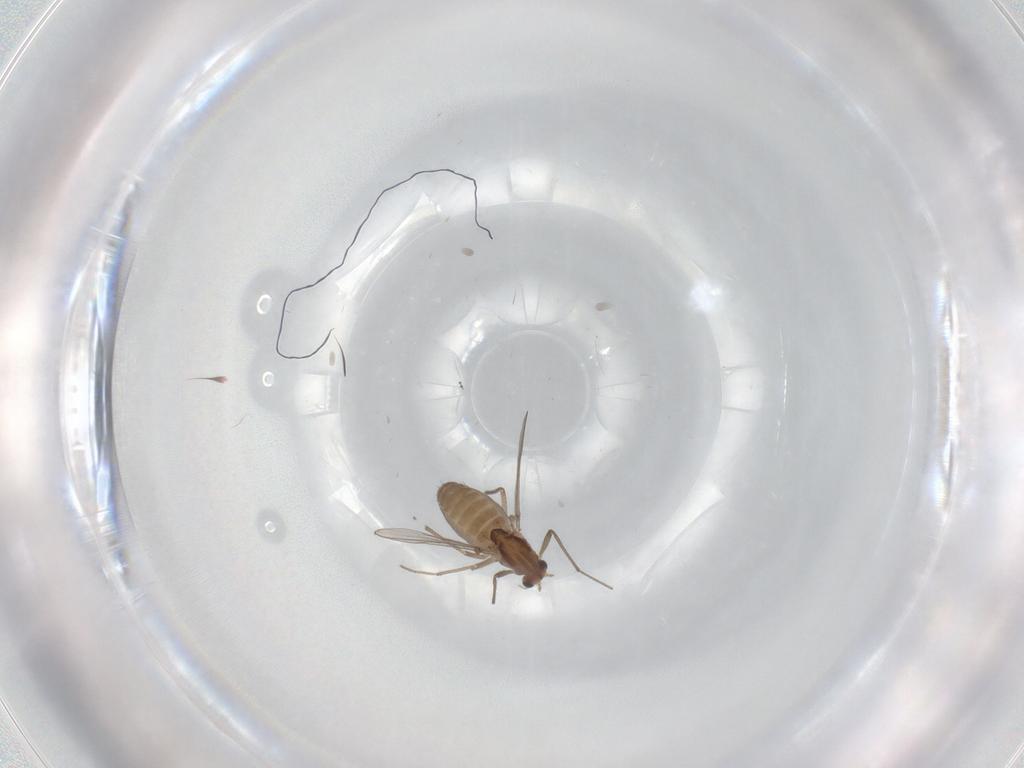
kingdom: Animalia
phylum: Arthropoda
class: Insecta
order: Diptera
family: Chironomidae
